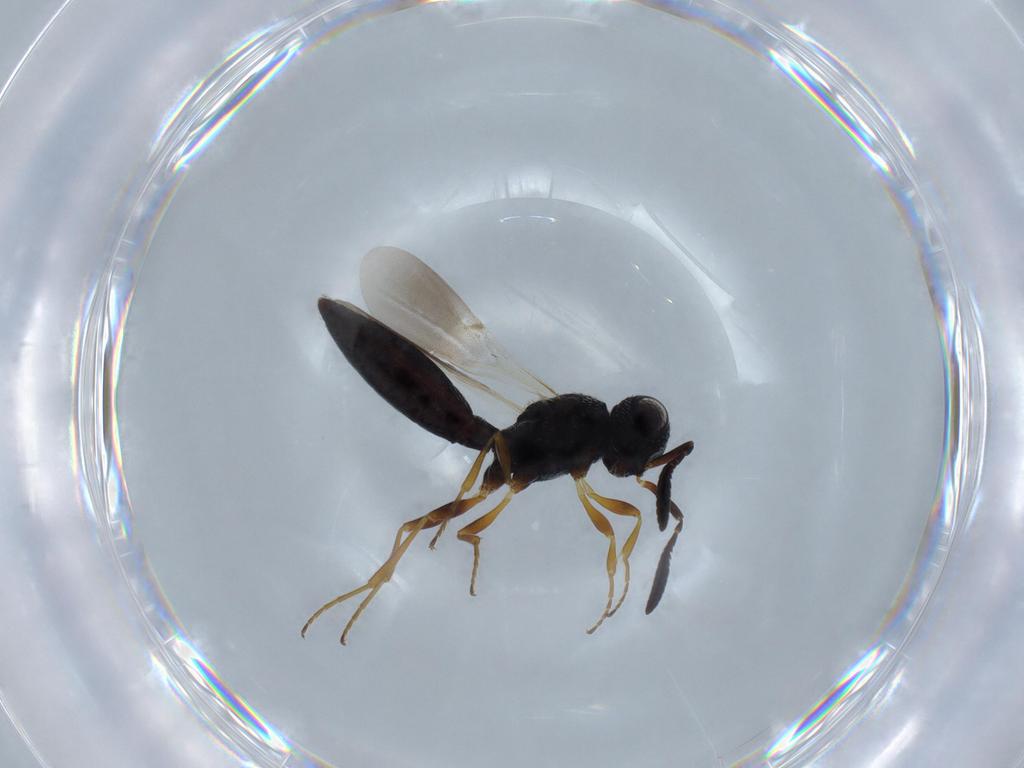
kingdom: Animalia
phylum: Arthropoda
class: Insecta
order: Hymenoptera
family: Scelionidae
